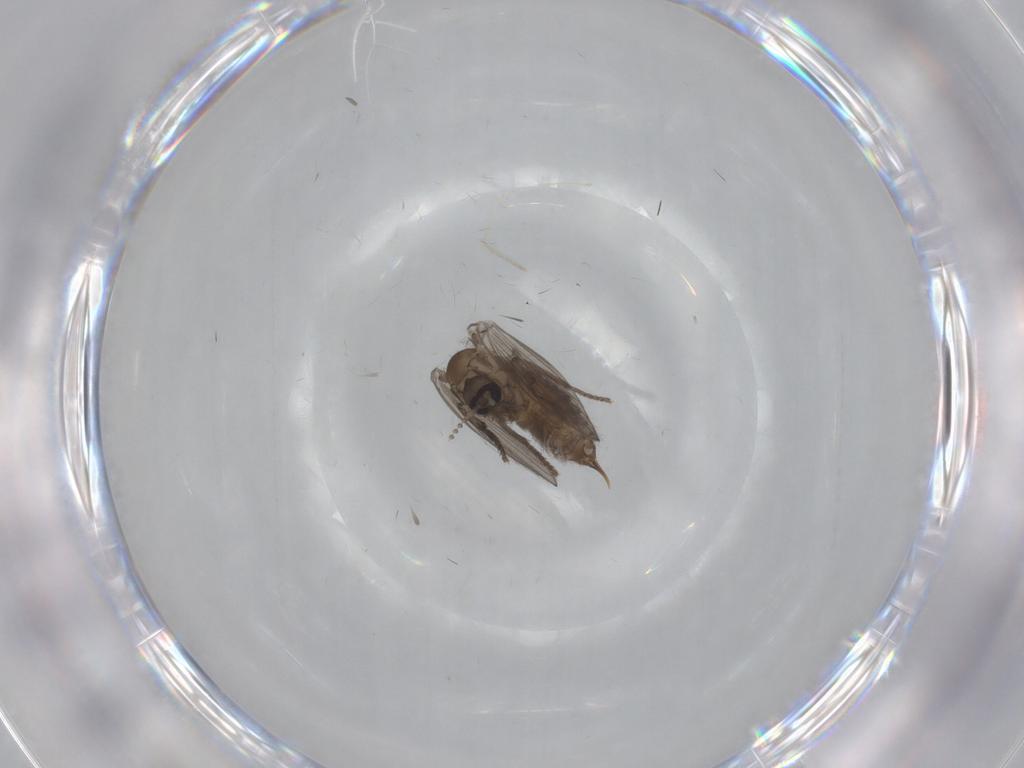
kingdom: Animalia
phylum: Arthropoda
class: Insecta
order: Diptera
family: Psychodidae
